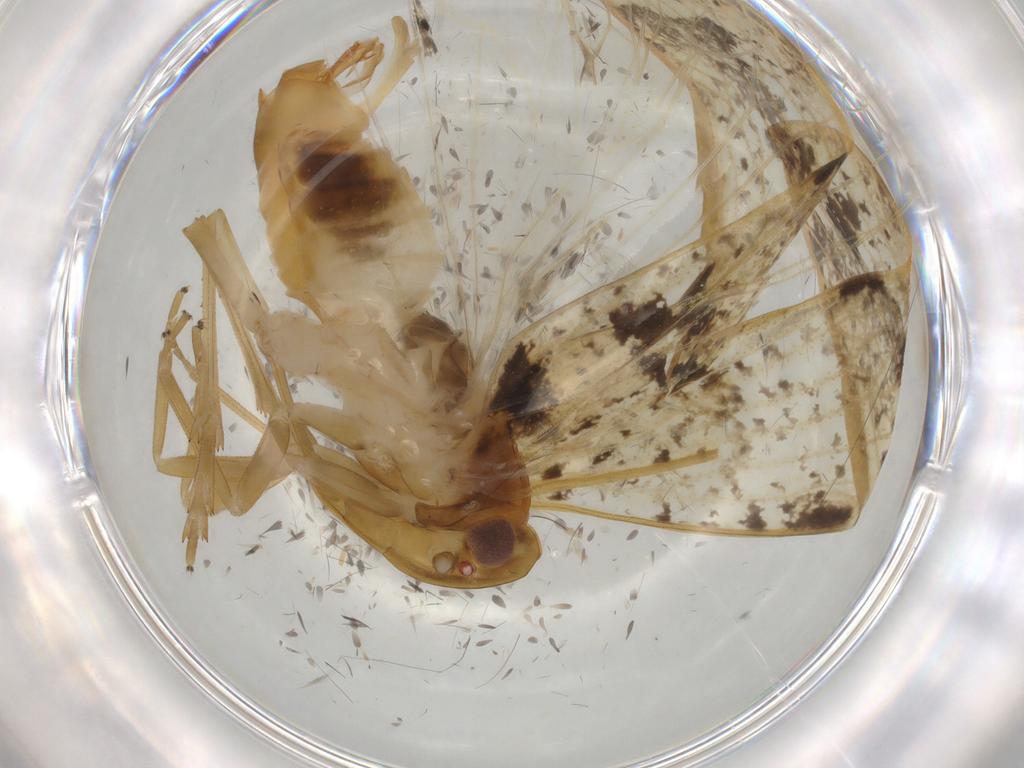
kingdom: Animalia
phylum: Arthropoda
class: Insecta
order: Hemiptera
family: Cixiidae
